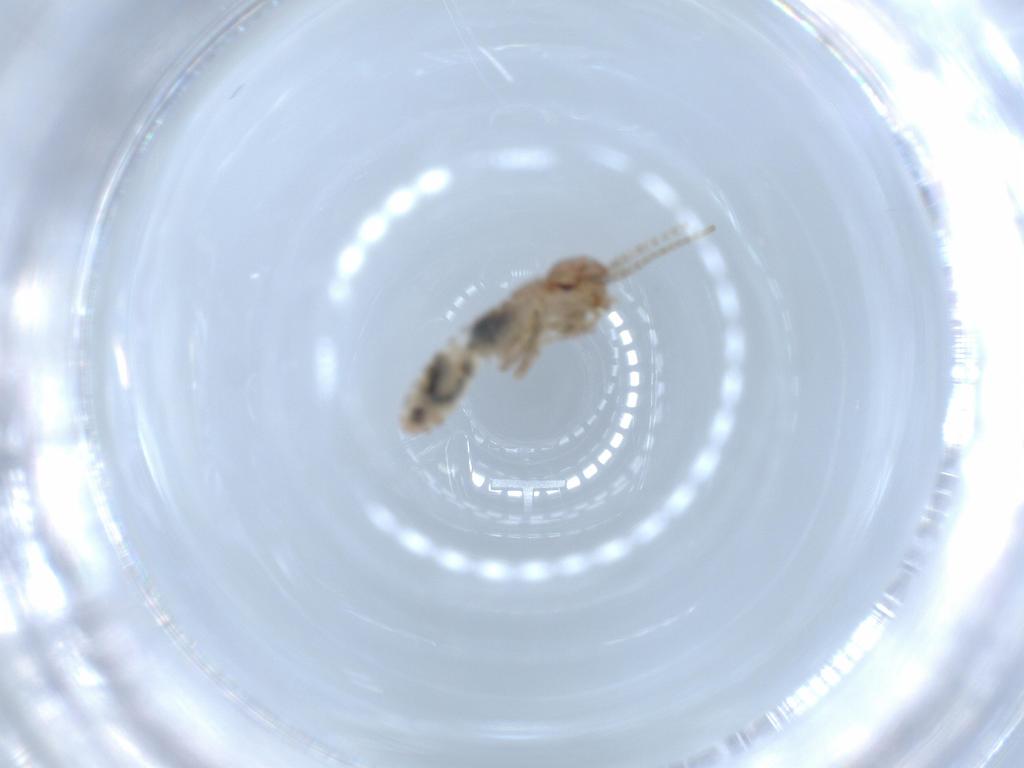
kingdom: Animalia
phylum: Arthropoda
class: Insecta
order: Orthoptera
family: Mogoplistidae
